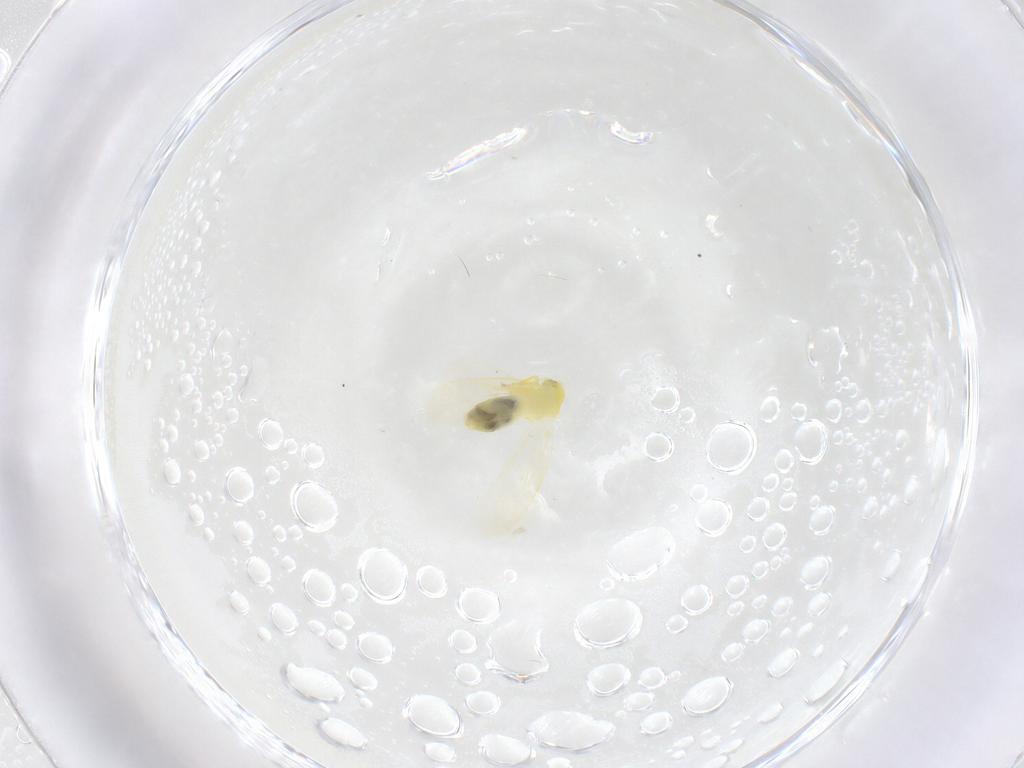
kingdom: Animalia
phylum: Arthropoda
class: Insecta
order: Hemiptera
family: Aleyrodidae
